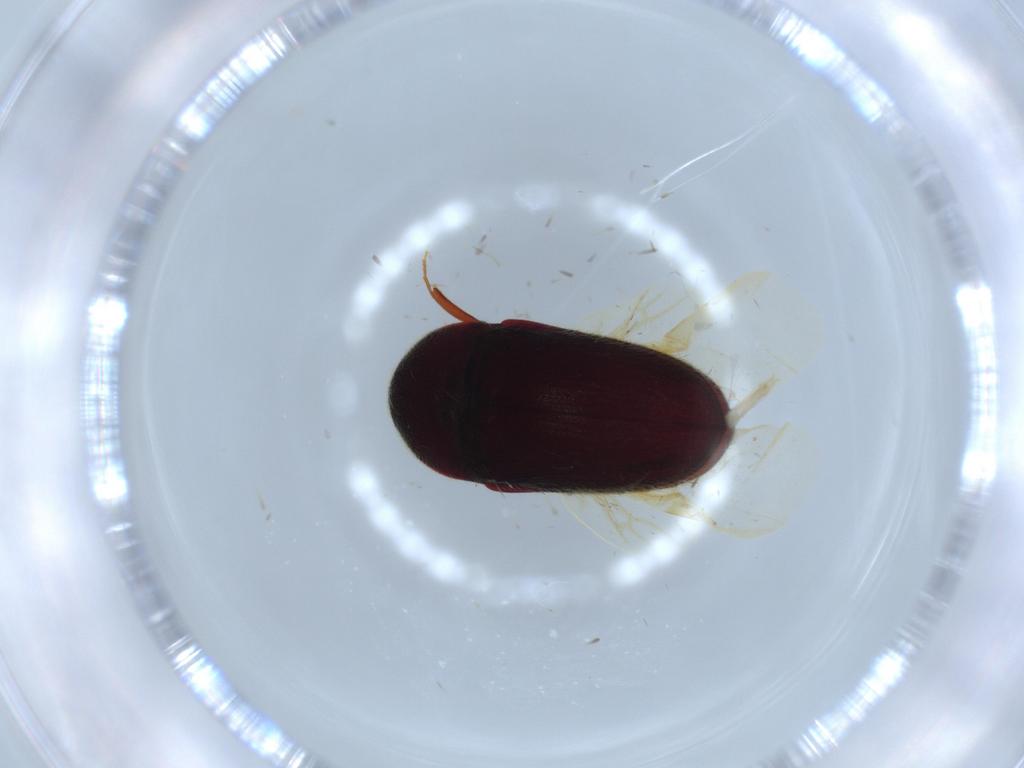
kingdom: Animalia
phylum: Arthropoda
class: Insecta
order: Coleoptera
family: Throscidae
